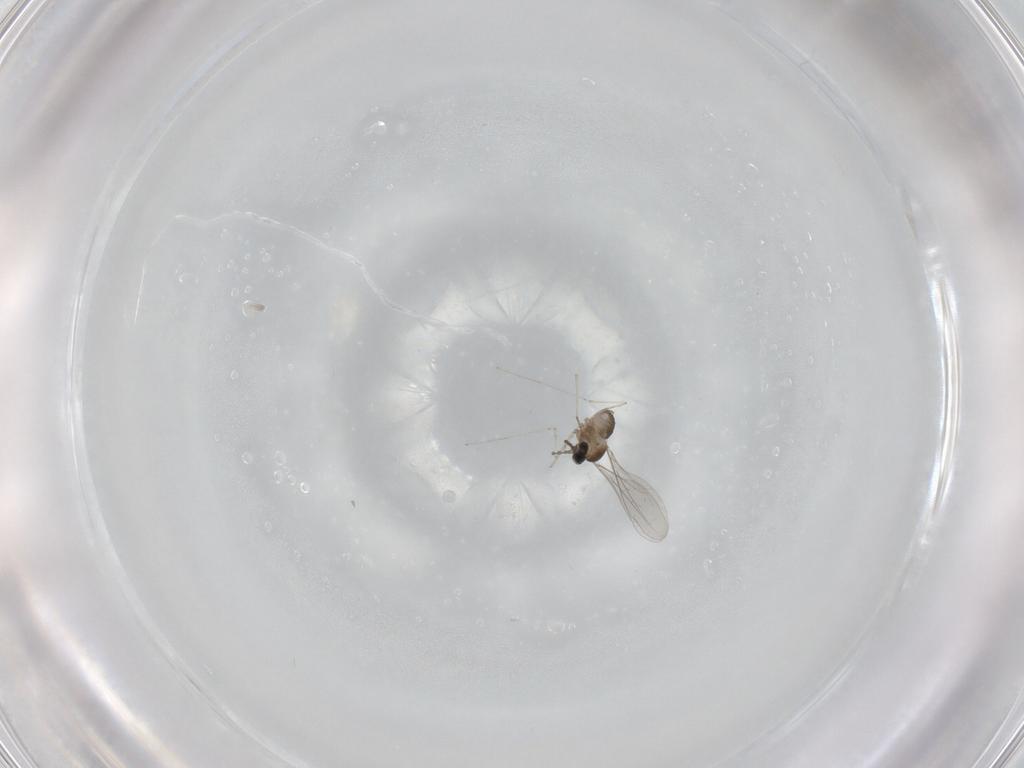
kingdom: Animalia
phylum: Arthropoda
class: Insecta
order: Diptera
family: Cecidomyiidae
